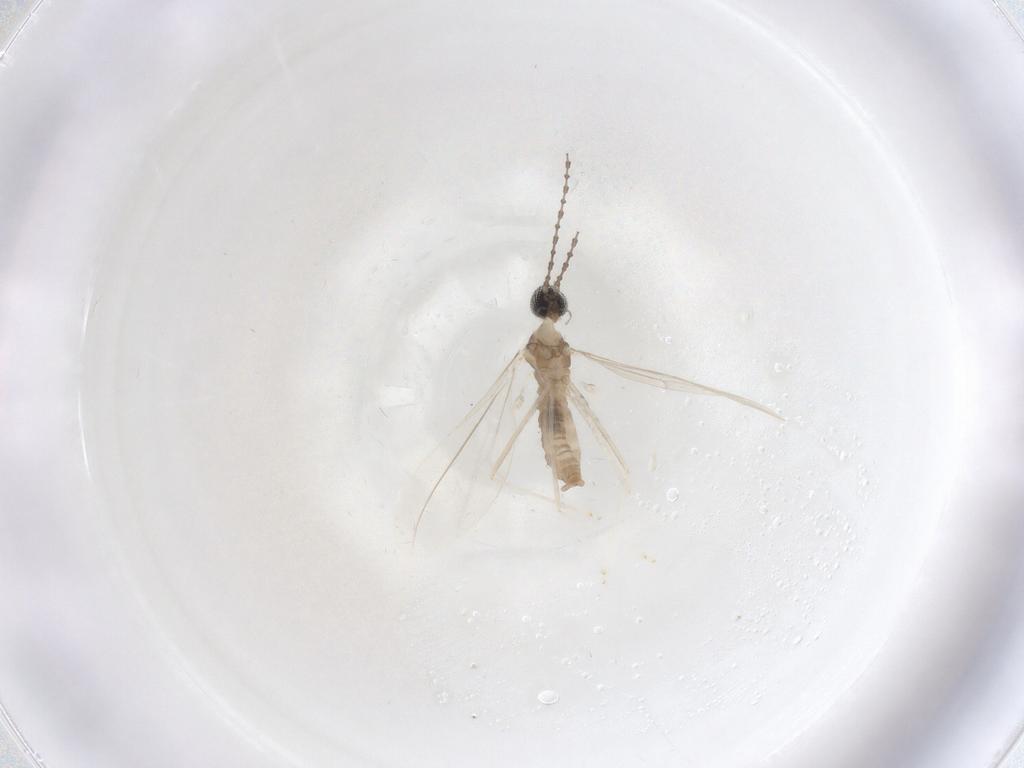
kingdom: Animalia
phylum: Arthropoda
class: Insecta
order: Diptera
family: Cecidomyiidae
